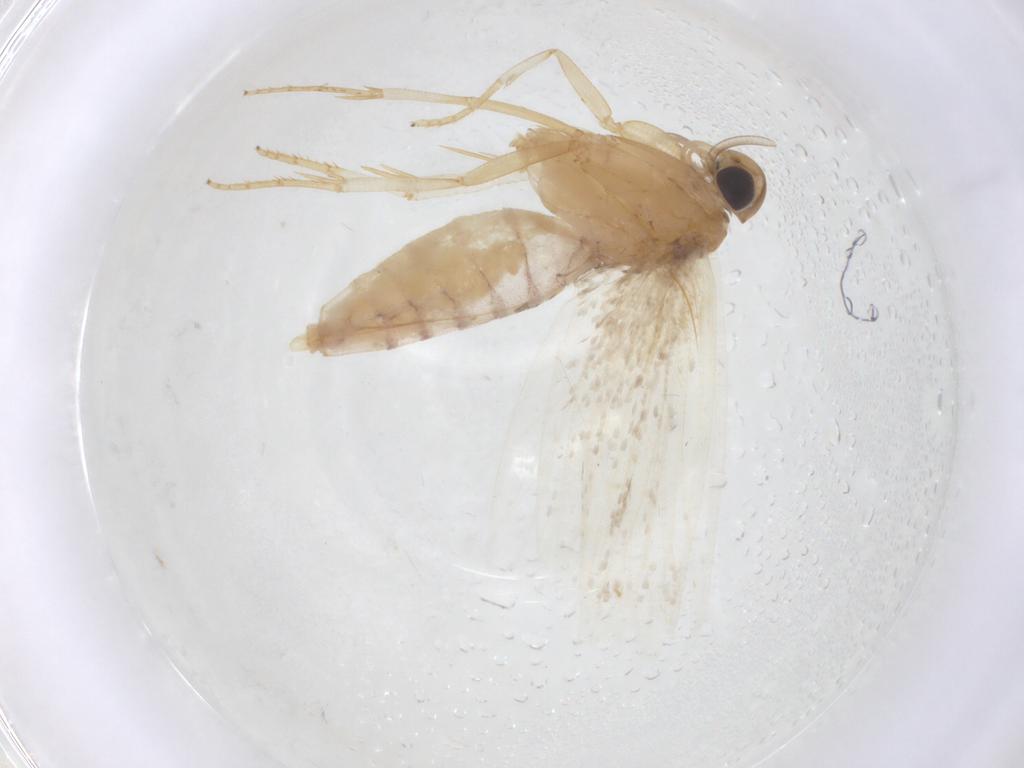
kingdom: Animalia
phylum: Arthropoda
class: Insecta
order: Lepidoptera
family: Gelechiidae
